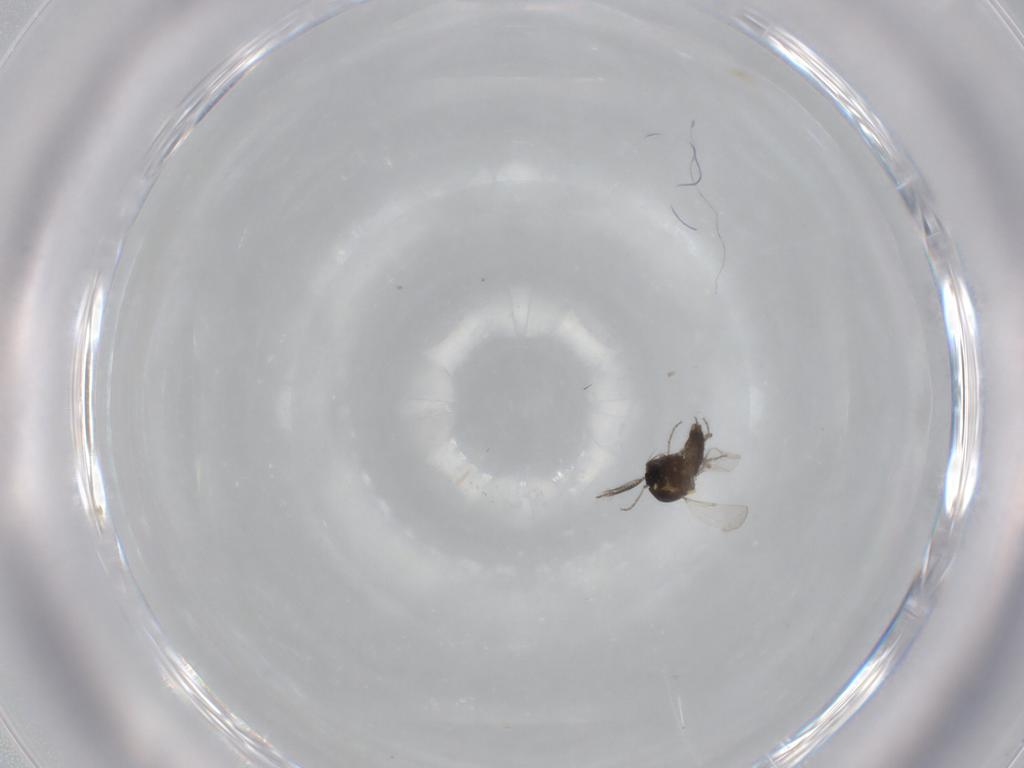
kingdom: Animalia
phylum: Arthropoda
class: Insecta
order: Diptera
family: Ceratopogonidae
